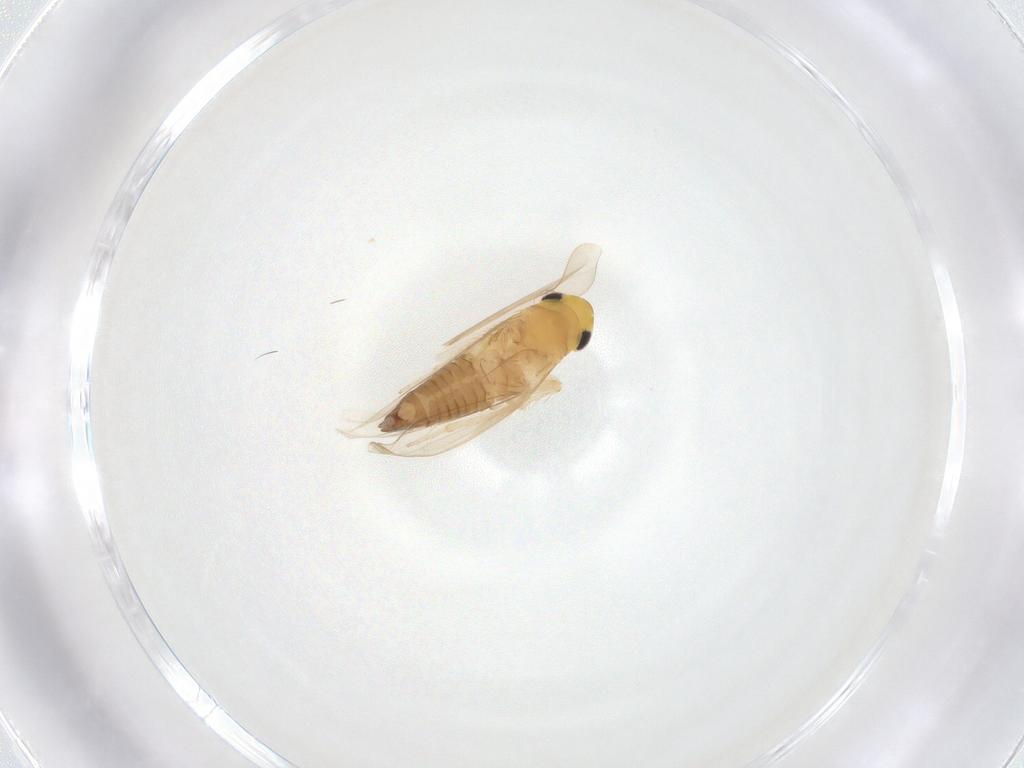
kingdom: Animalia
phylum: Arthropoda
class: Insecta
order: Hemiptera
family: Cicadellidae
